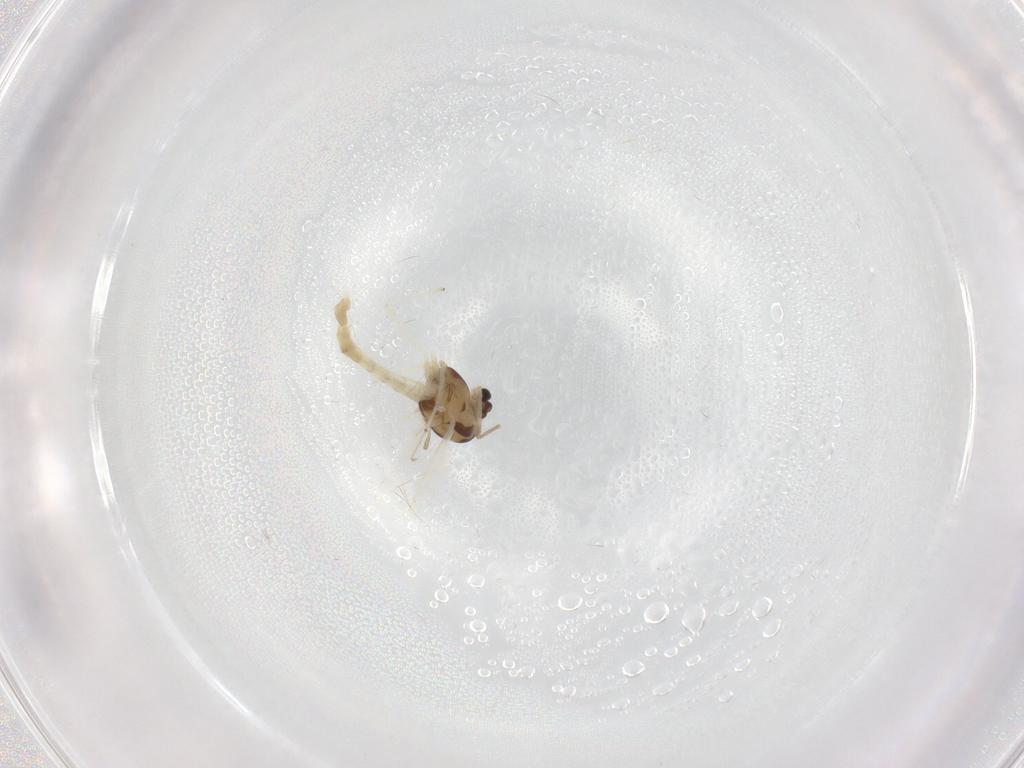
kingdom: Animalia
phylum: Arthropoda
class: Insecta
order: Diptera
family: Chironomidae
